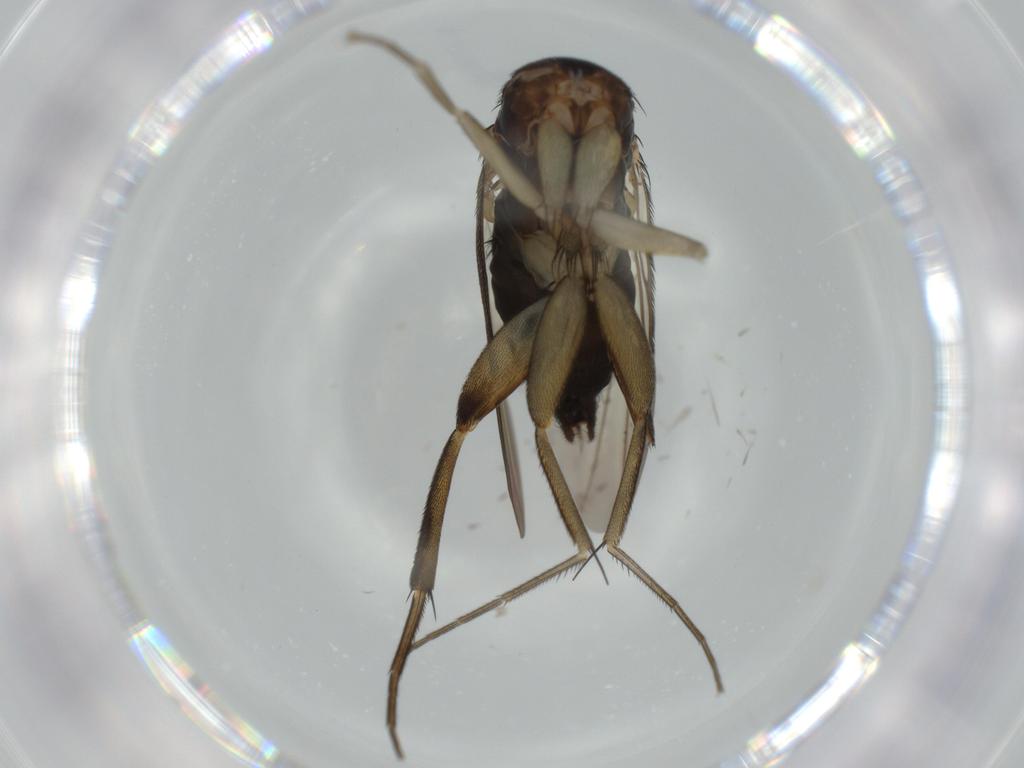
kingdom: Animalia
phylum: Arthropoda
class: Insecta
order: Diptera
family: Phoridae
